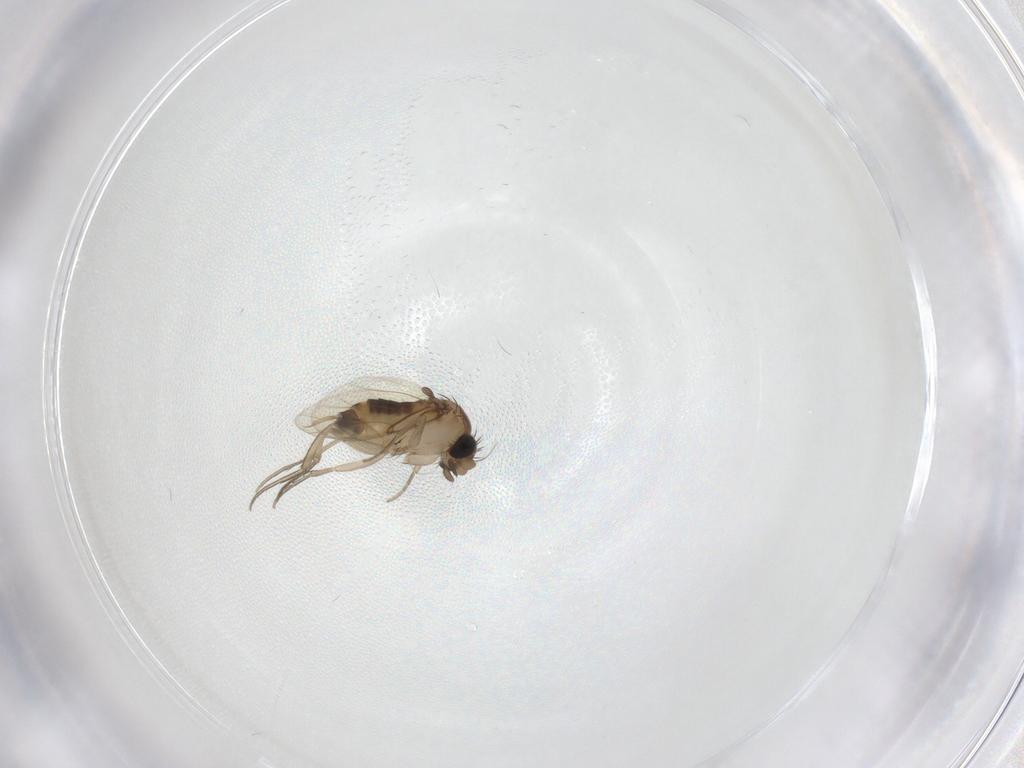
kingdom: Animalia
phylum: Arthropoda
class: Insecta
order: Diptera
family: Phoridae
